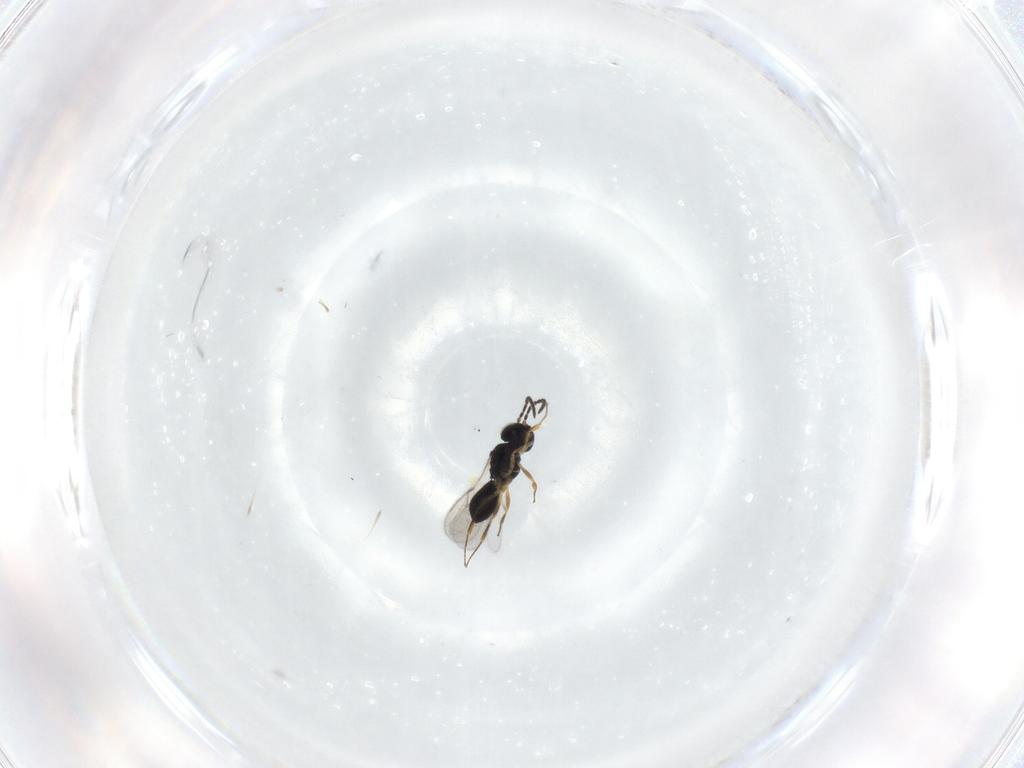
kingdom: Animalia
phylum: Arthropoda
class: Insecta
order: Hymenoptera
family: Scelionidae
